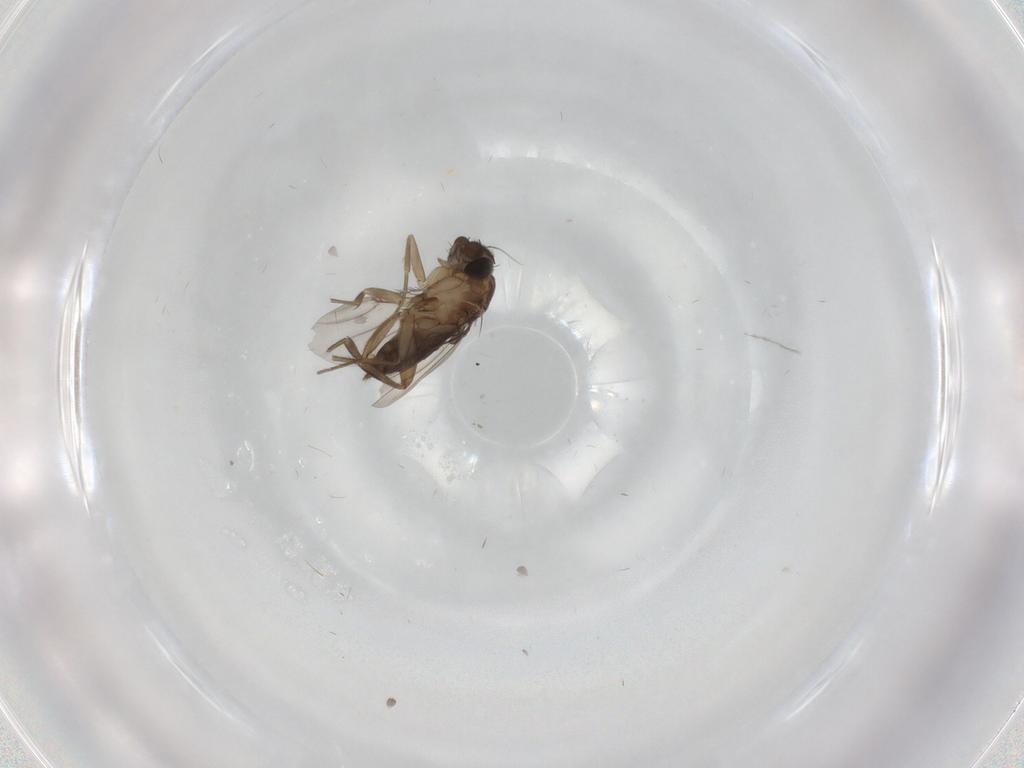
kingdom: Animalia
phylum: Arthropoda
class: Insecta
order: Diptera
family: Phoridae
